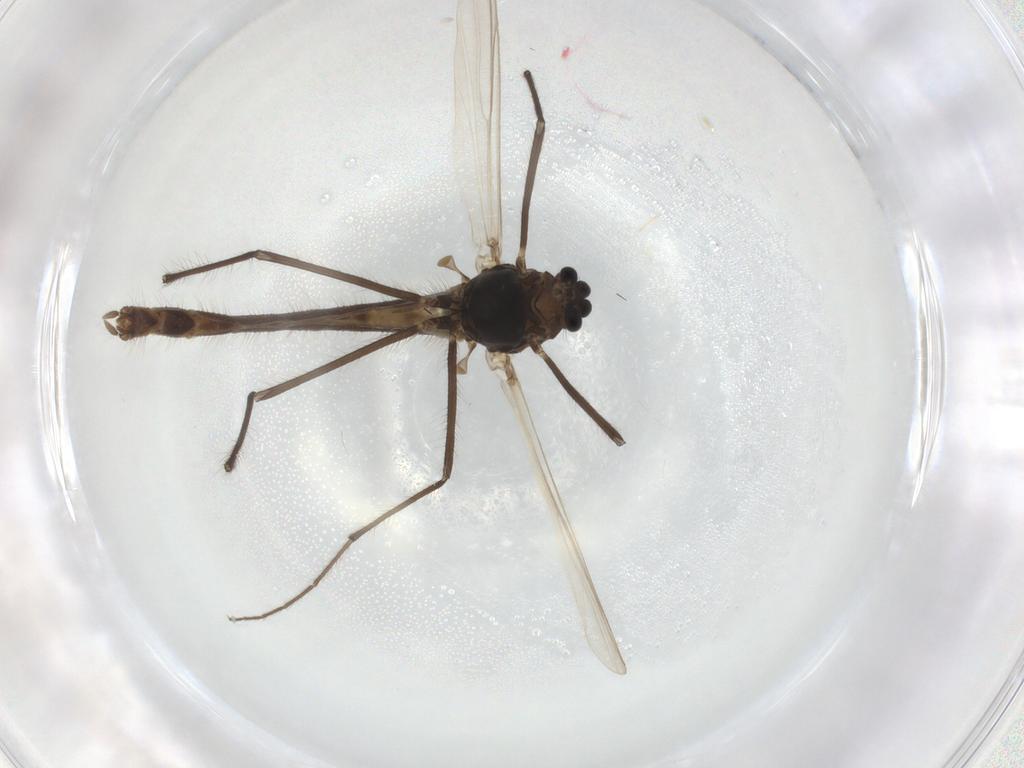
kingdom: Animalia
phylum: Arthropoda
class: Insecta
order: Diptera
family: Chironomidae
